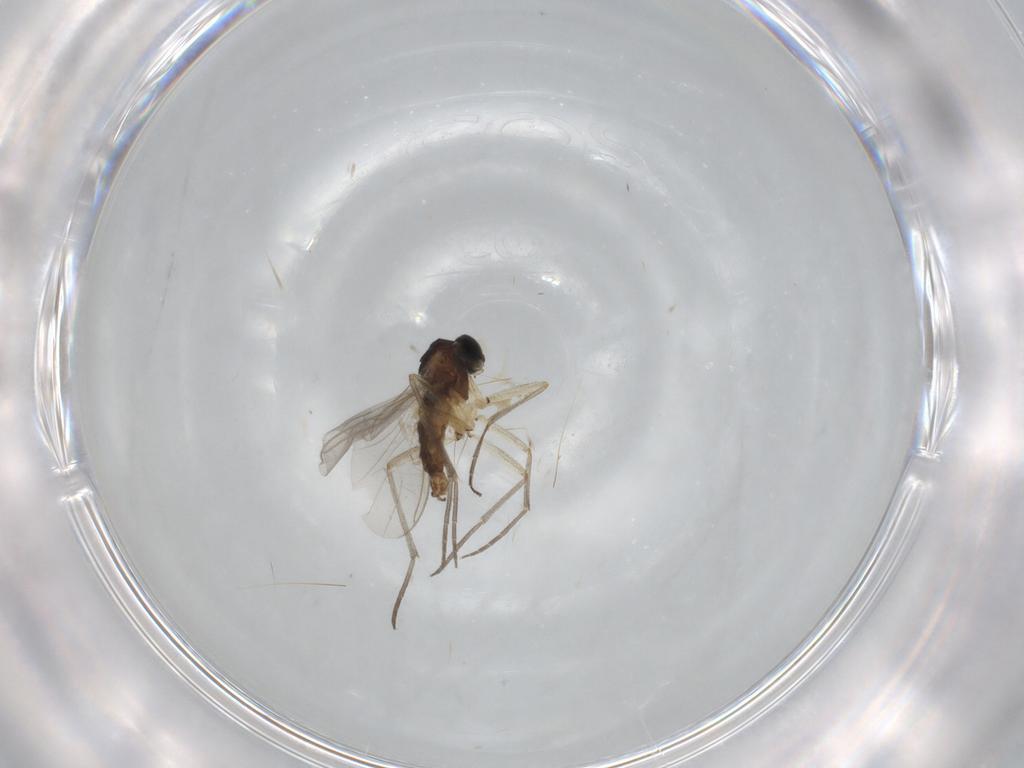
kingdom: Animalia
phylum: Arthropoda
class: Insecta
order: Diptera
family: Sciaridae
